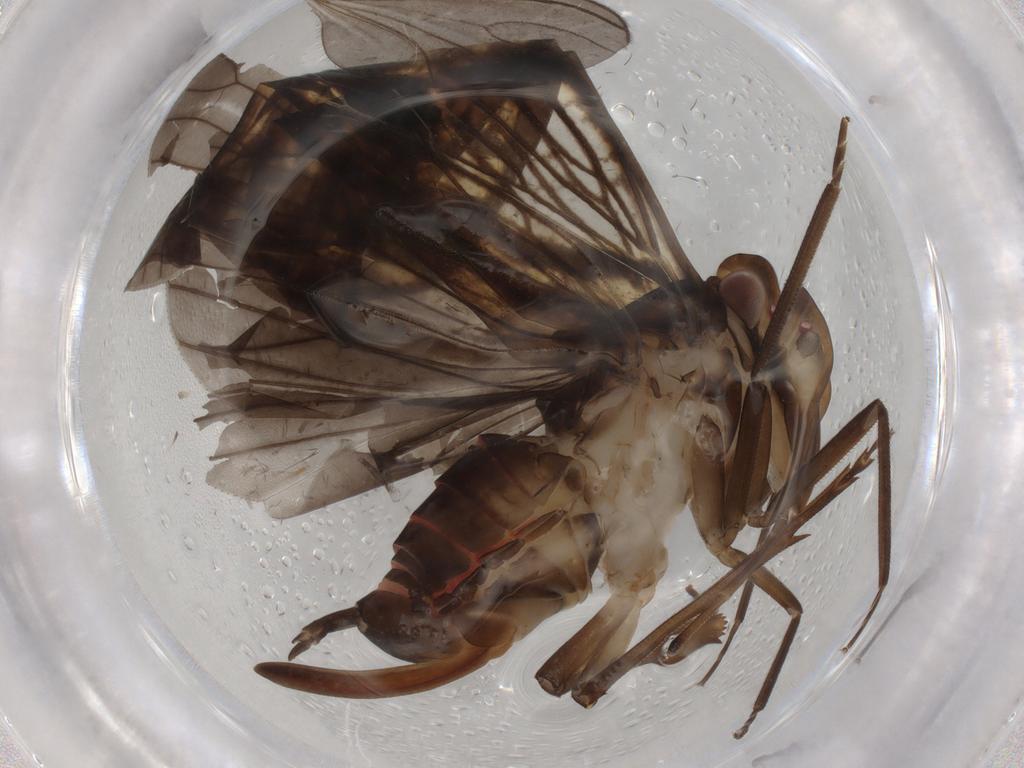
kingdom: Animalia
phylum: Arthropoda
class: Insecta
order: Hemiptera
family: Cixiidae
